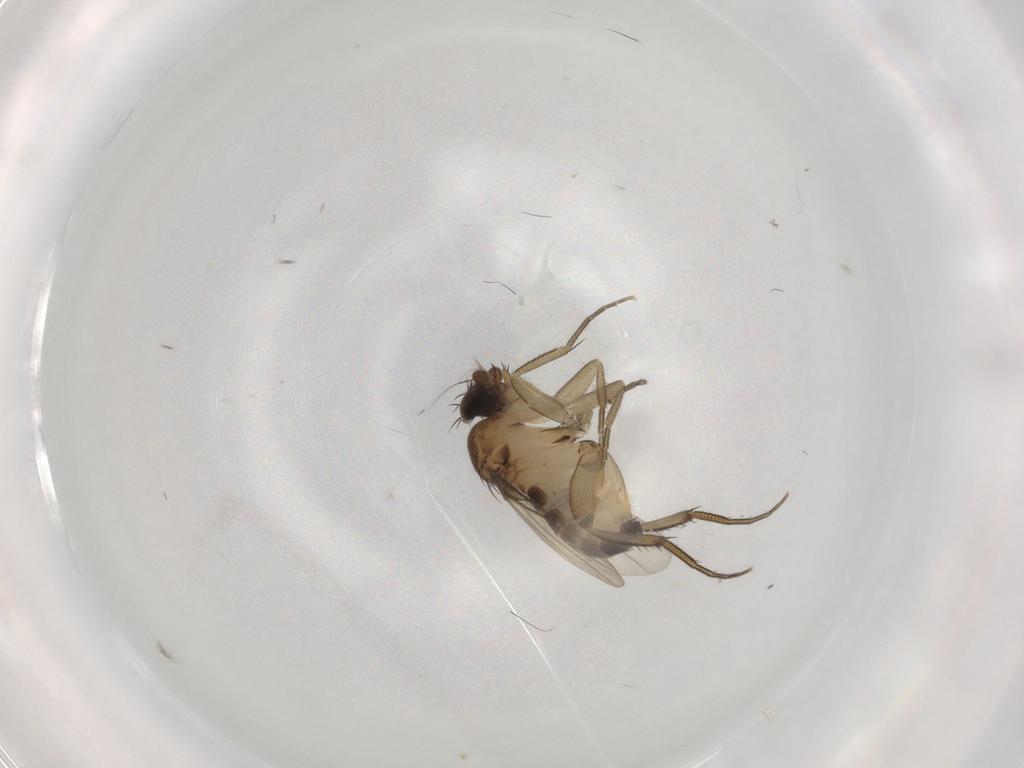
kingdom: Animalia
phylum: Arthropoda
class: Insecta
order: Diptera
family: Phoridae
